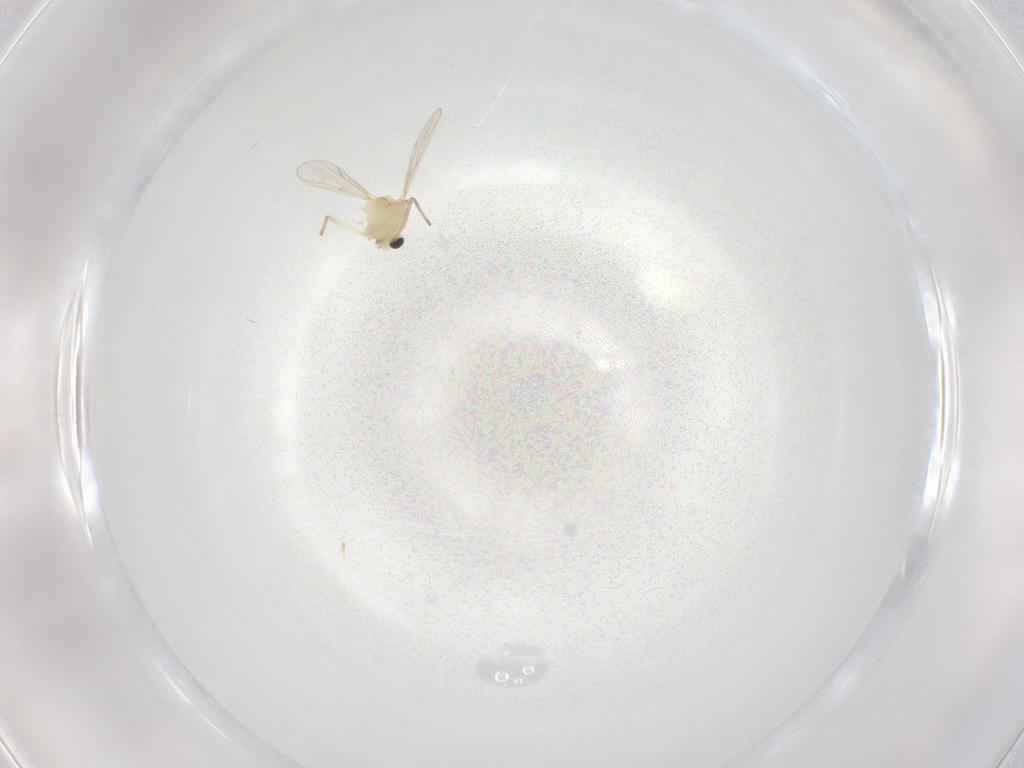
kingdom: Animalia
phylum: Arthropoda
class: Insecta
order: Diptera
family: Chironomidae
